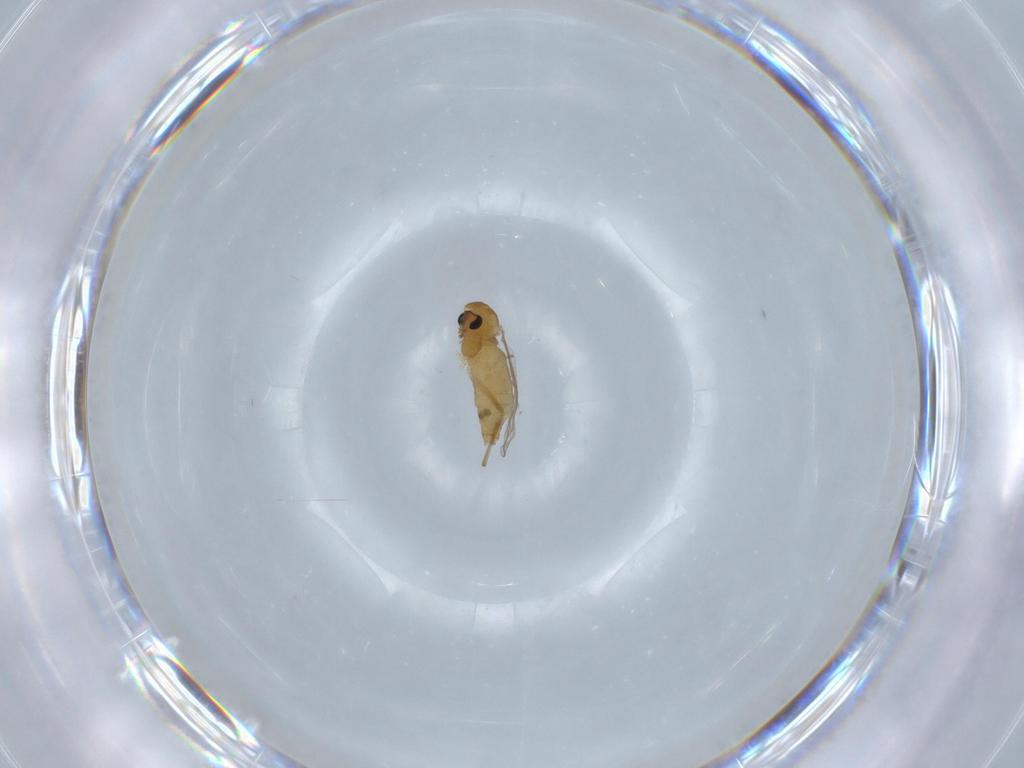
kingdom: Animalia
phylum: Arthropoda
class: Insecta
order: Diptera
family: Chironomidae
